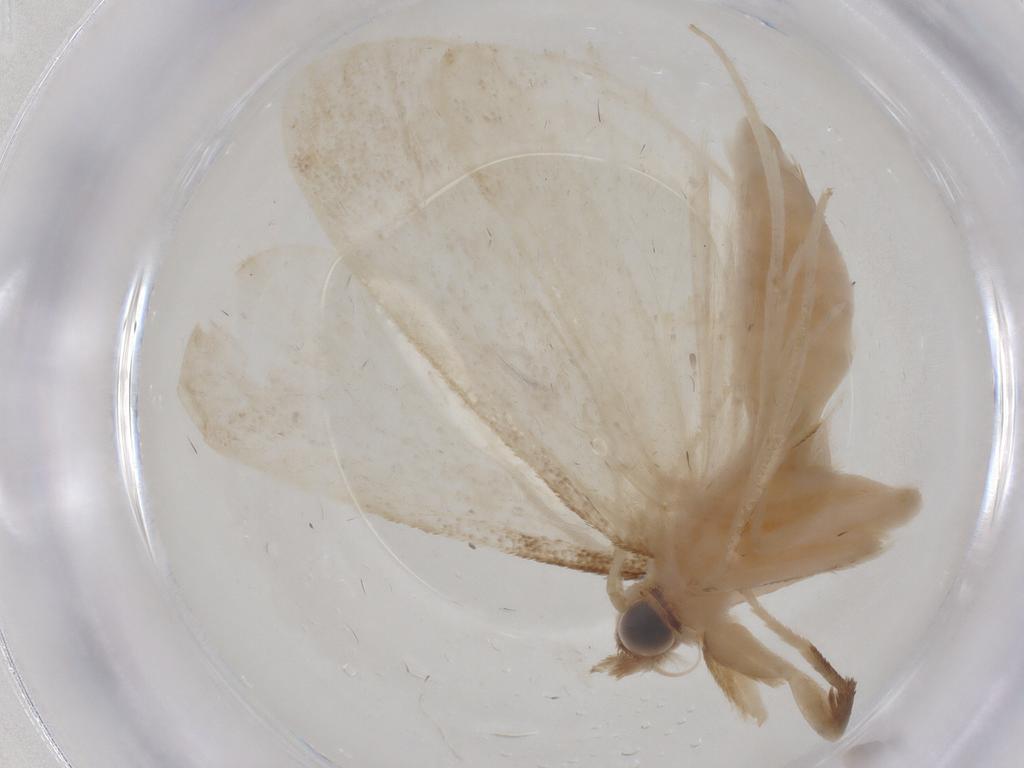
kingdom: Animalia
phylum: Arthropoda
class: Insecta
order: Lepidoptera
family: Crambidae
